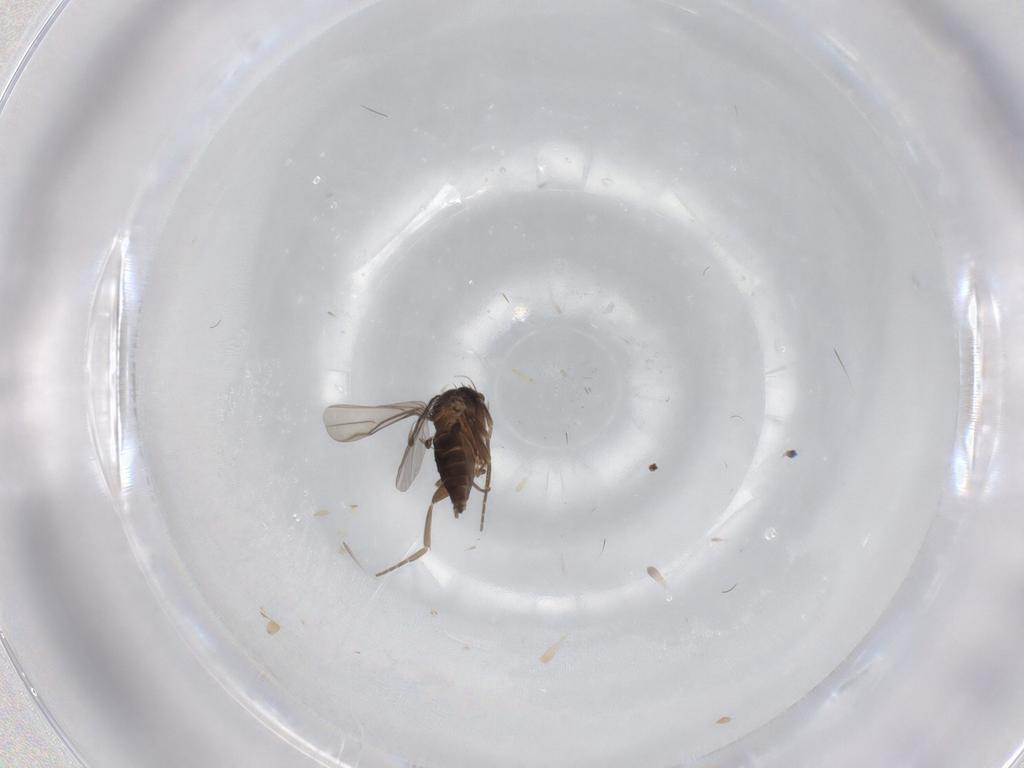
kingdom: Animalia
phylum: Arthropoda
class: Insecta
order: Diptera
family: Phoridae
